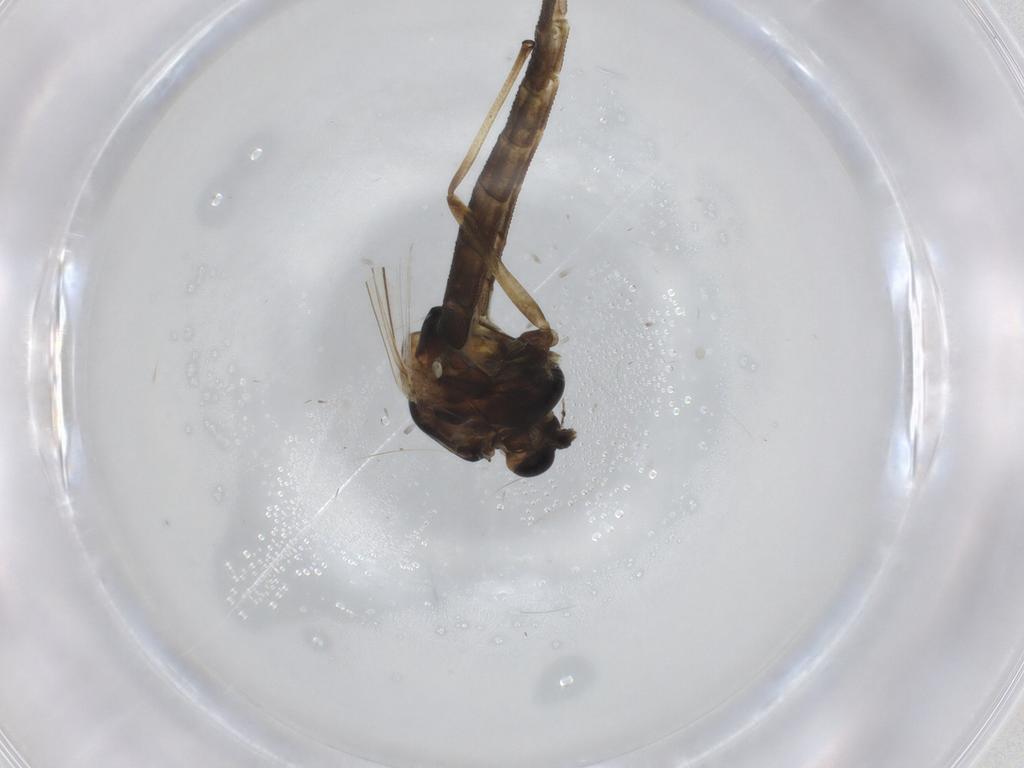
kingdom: Animalia
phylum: Arthropoda
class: Insecta
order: Diptera
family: Chironomidae
